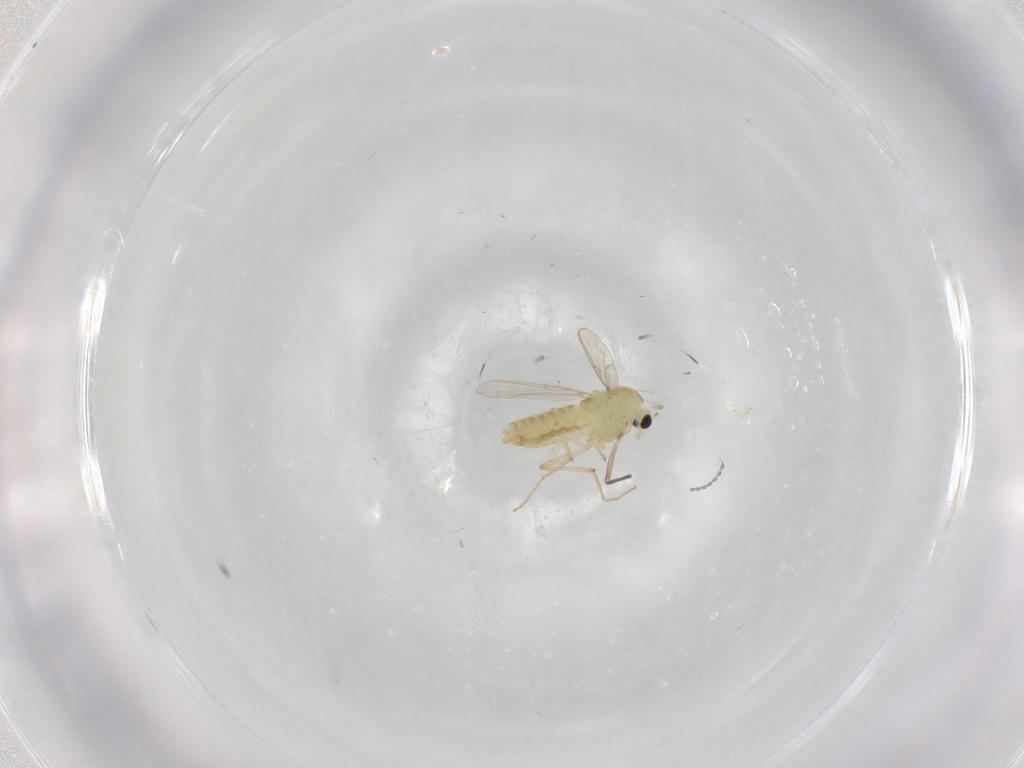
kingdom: Animalia
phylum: Arthropoda
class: Insecta
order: Diptera
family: Chironomidae
